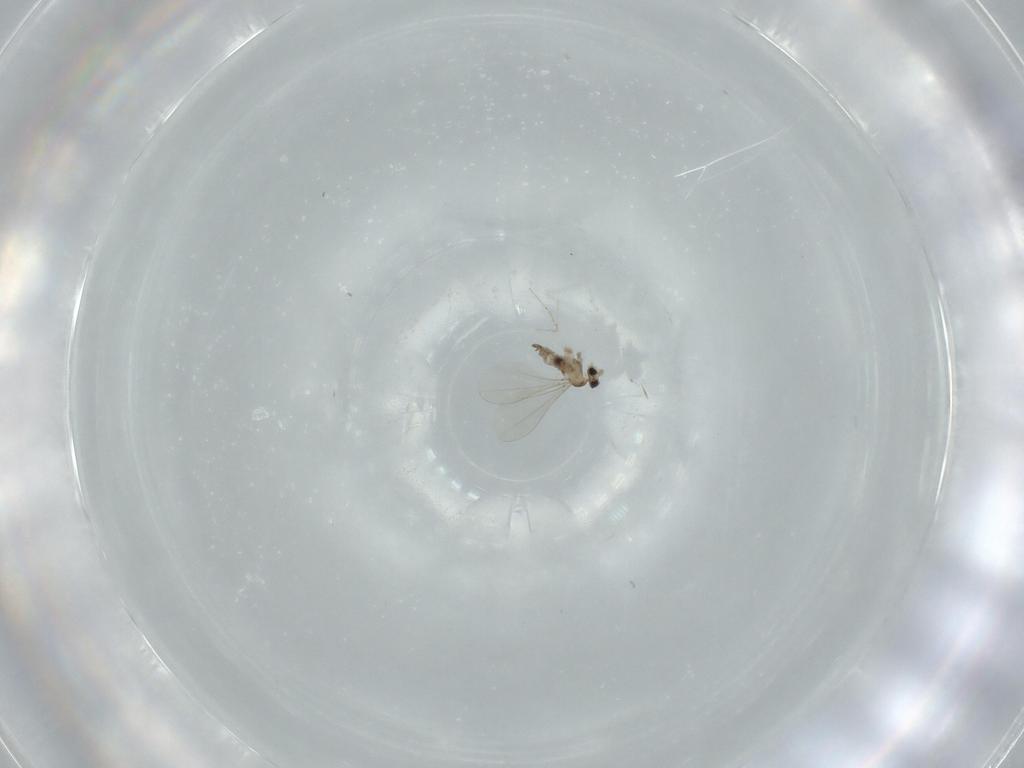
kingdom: Animalia
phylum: Arthropoda
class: Insecta
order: Diptera
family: Cecidomyiidae
